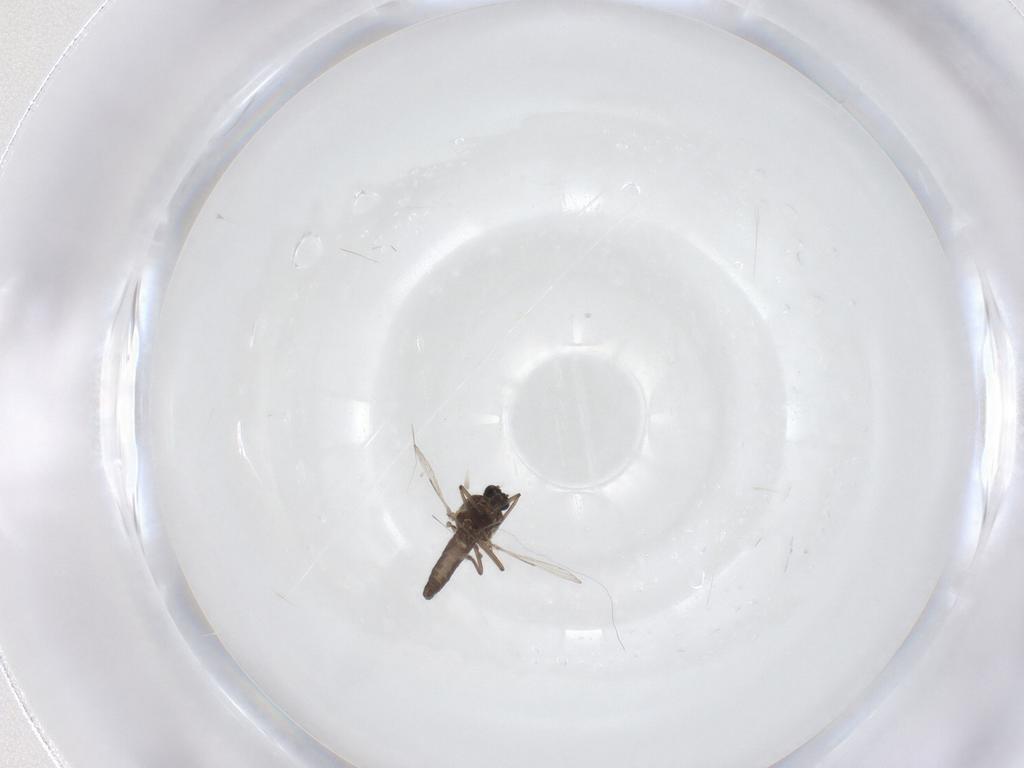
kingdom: Animalia
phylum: Arthropoda
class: Insecta
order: Diptera
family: Ceratopogonidae
